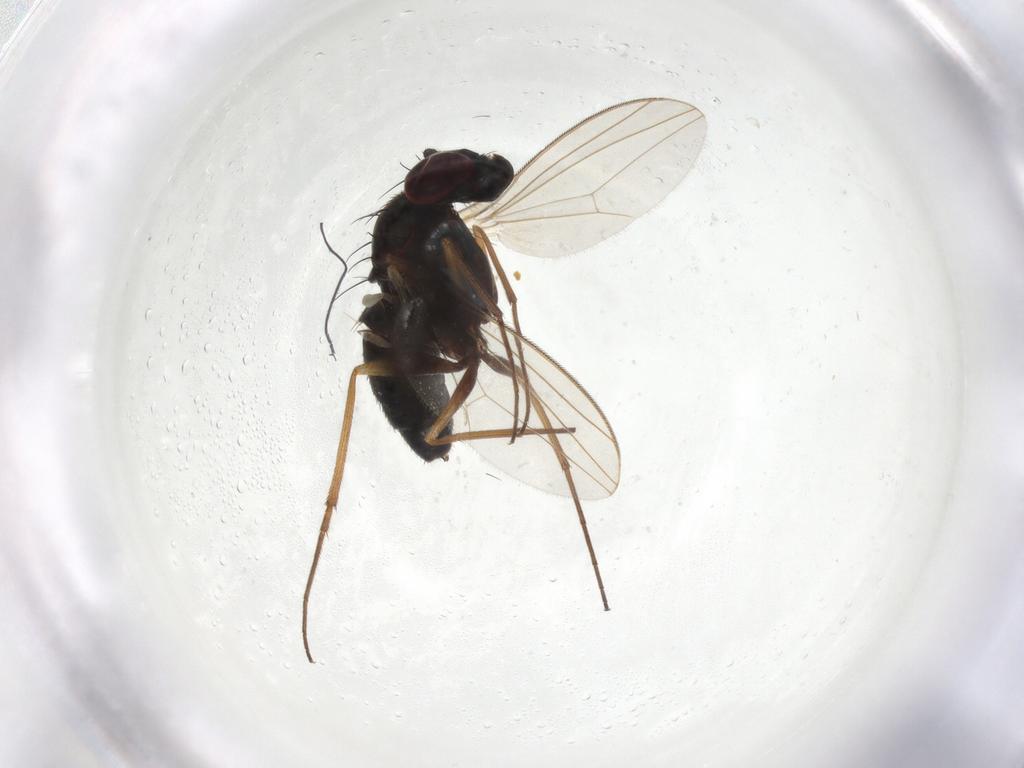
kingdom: Animalia
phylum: Arthropoda
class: Insecta
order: Diptera
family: Dolichopodidae
